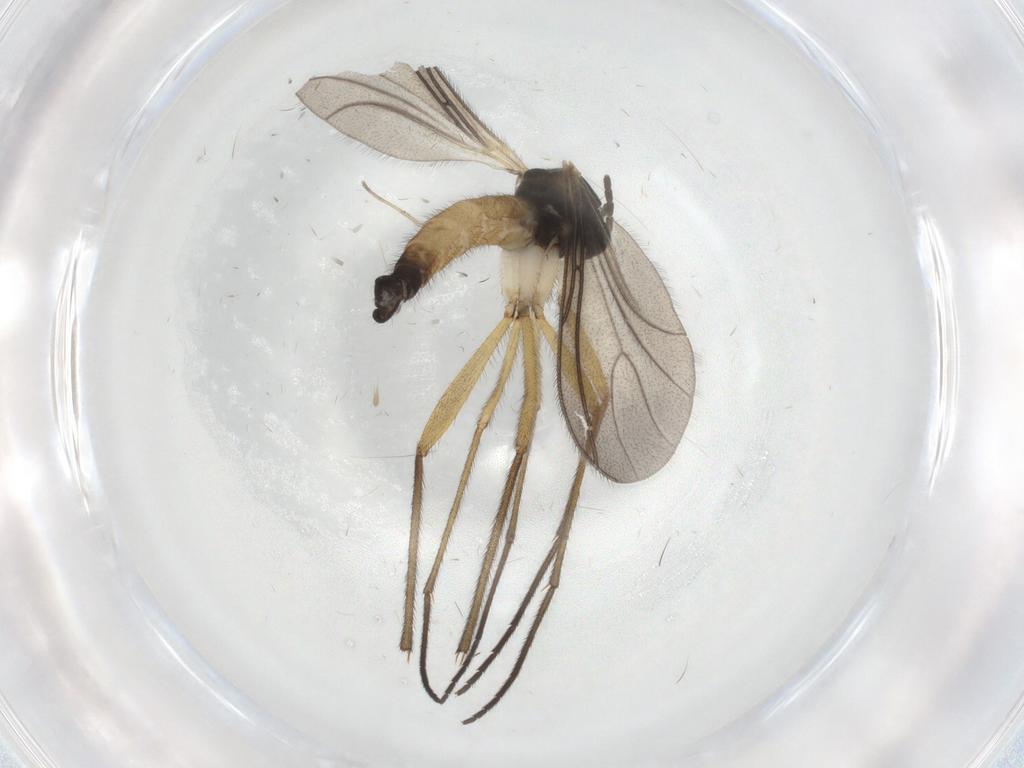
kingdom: Animalia
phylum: Arthropoda
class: Insecta
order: Diptera
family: Sciaridae
